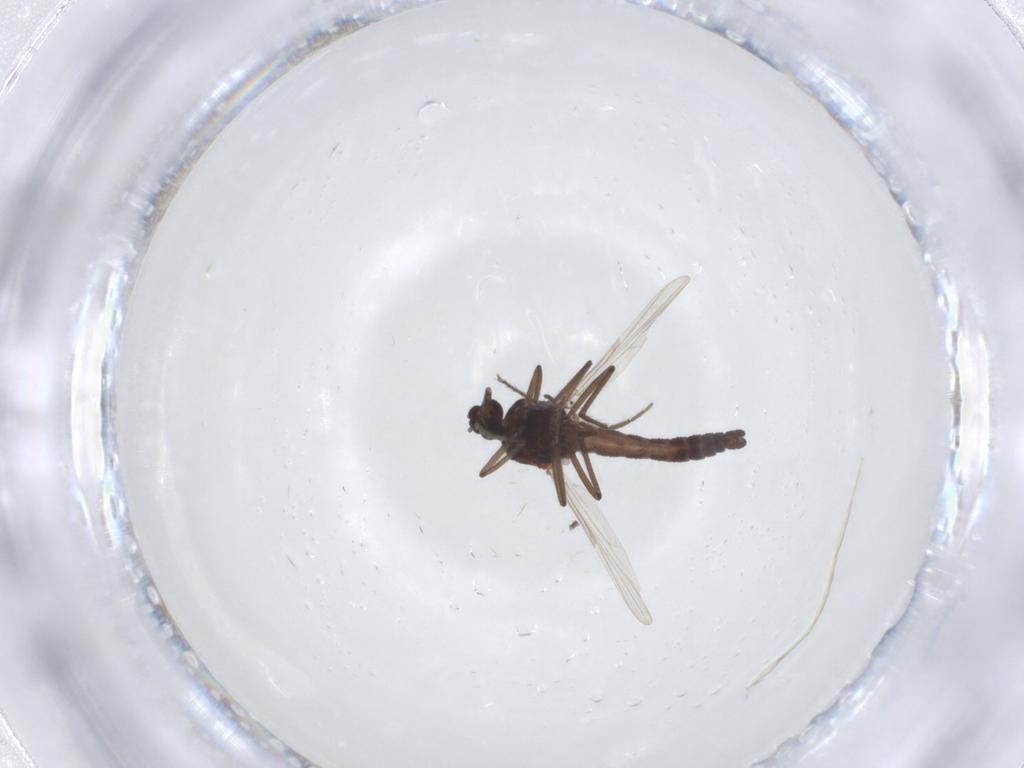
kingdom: Animalia
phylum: Arthropoda
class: Insecta
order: Diptera
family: Ceratopogonidae
